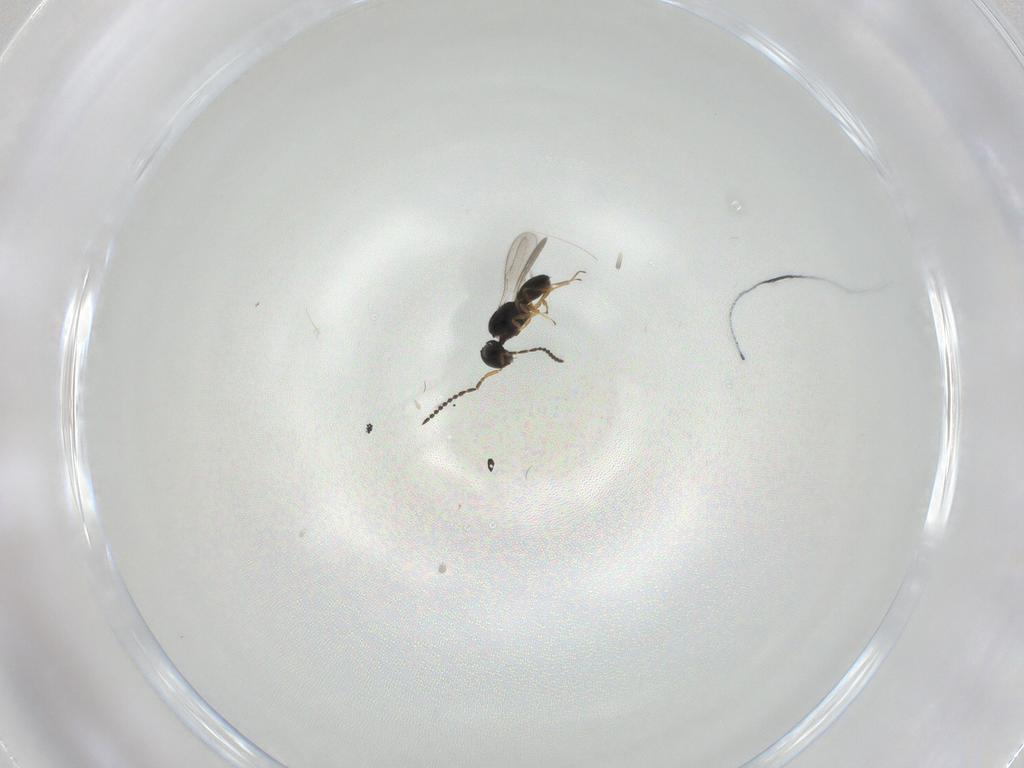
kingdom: Animalia
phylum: Arthropoda
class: Insecta
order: Hymenoptera
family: Scelionidae
